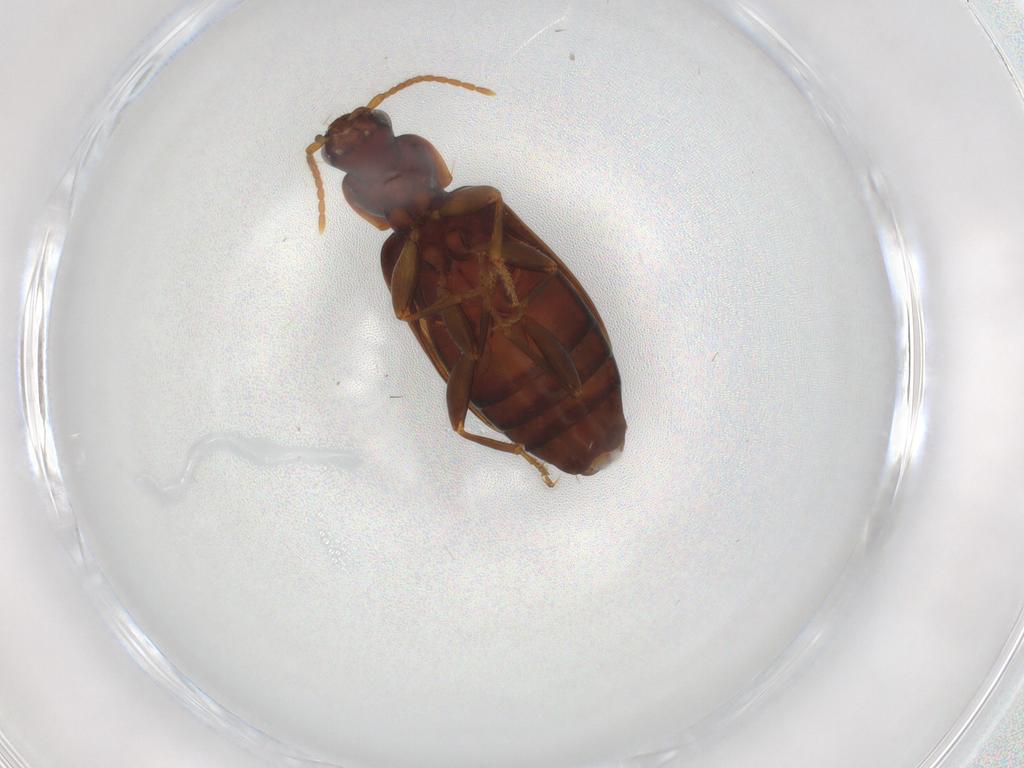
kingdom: Animalia
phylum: Arthropoda
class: Insecta
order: Coleoptera
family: Carabidae
